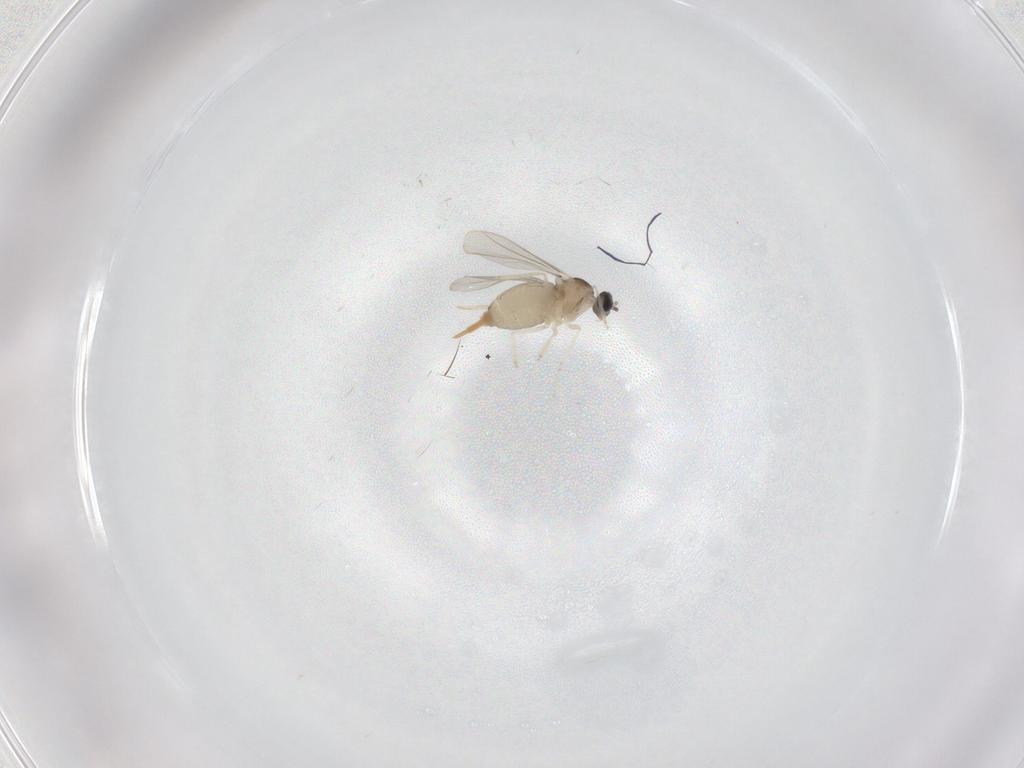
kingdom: Animalia
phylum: Arthropoda
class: Insecta
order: Diptera
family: Cecidomyiidae
